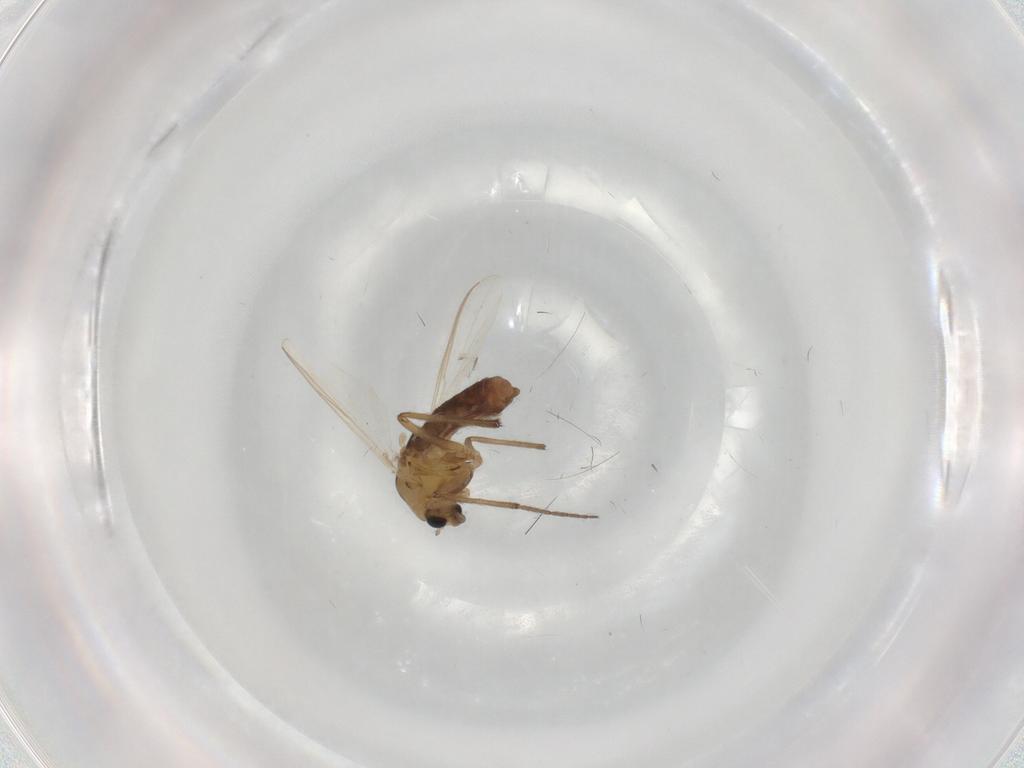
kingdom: Animalia
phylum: Arthropoda
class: Insecta
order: Diptera
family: Chironomidae
